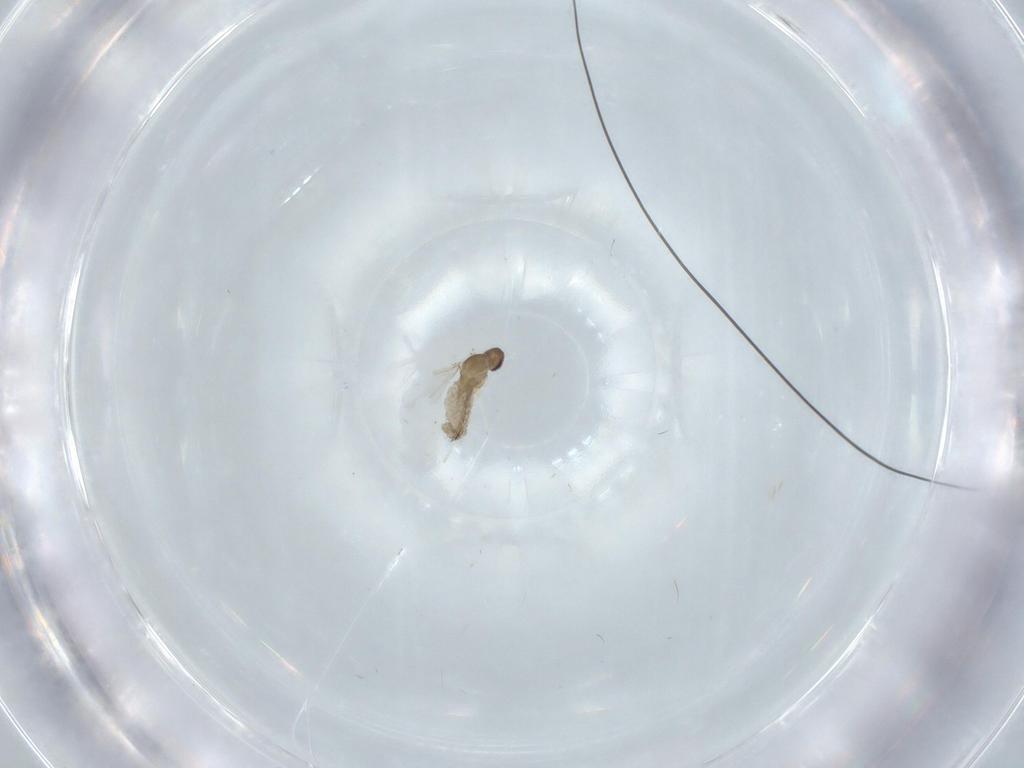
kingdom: Animalia
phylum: Arthropoda
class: Insecta
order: Diptera
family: Cecidomyiidae
